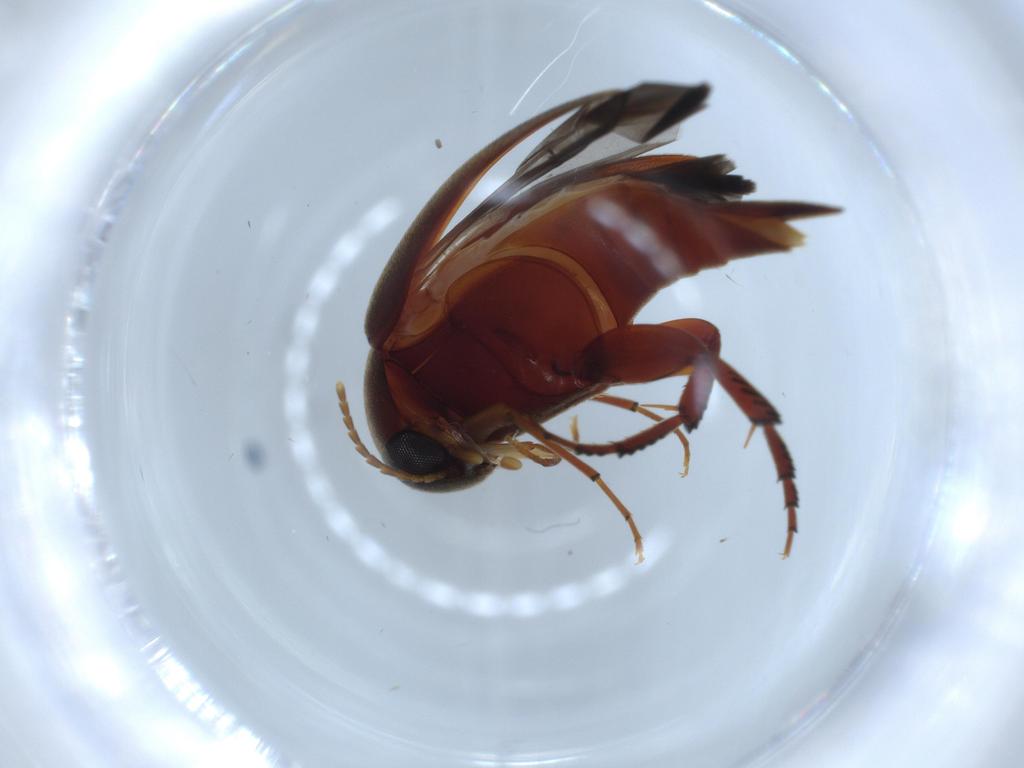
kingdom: Animalia
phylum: Arthropoda
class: Insecta
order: Coleoptera
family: Chrysomelidae
